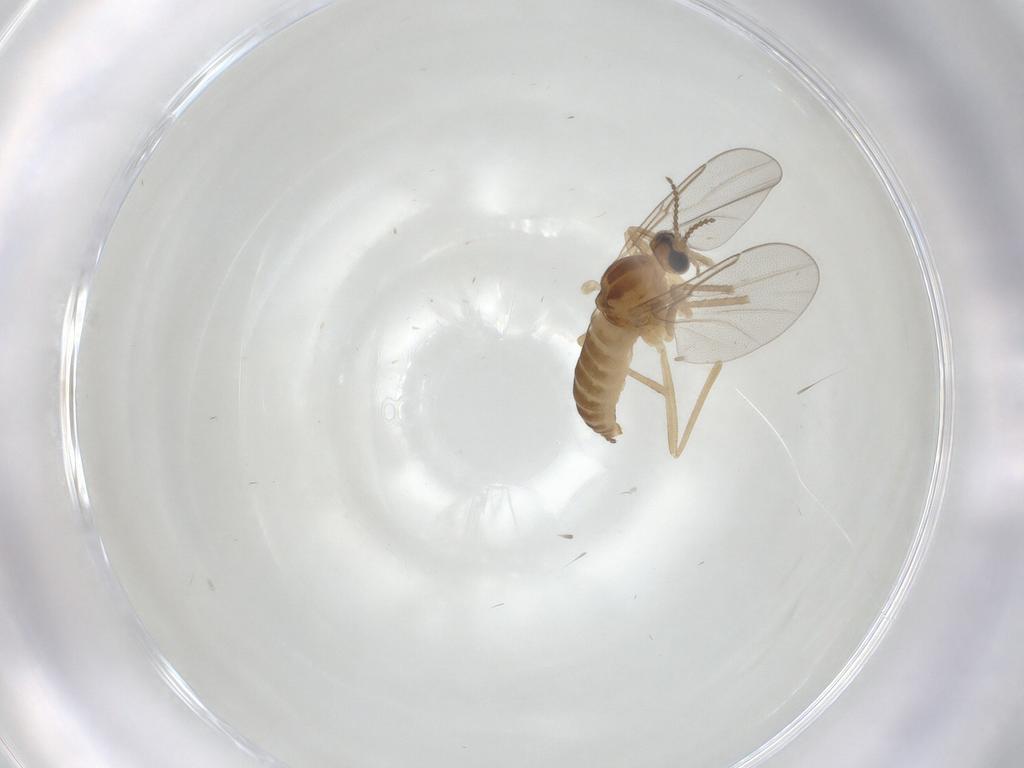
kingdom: Animalia
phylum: Arthropoda
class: Insecta
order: Diptera
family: Cecidomyiidae
